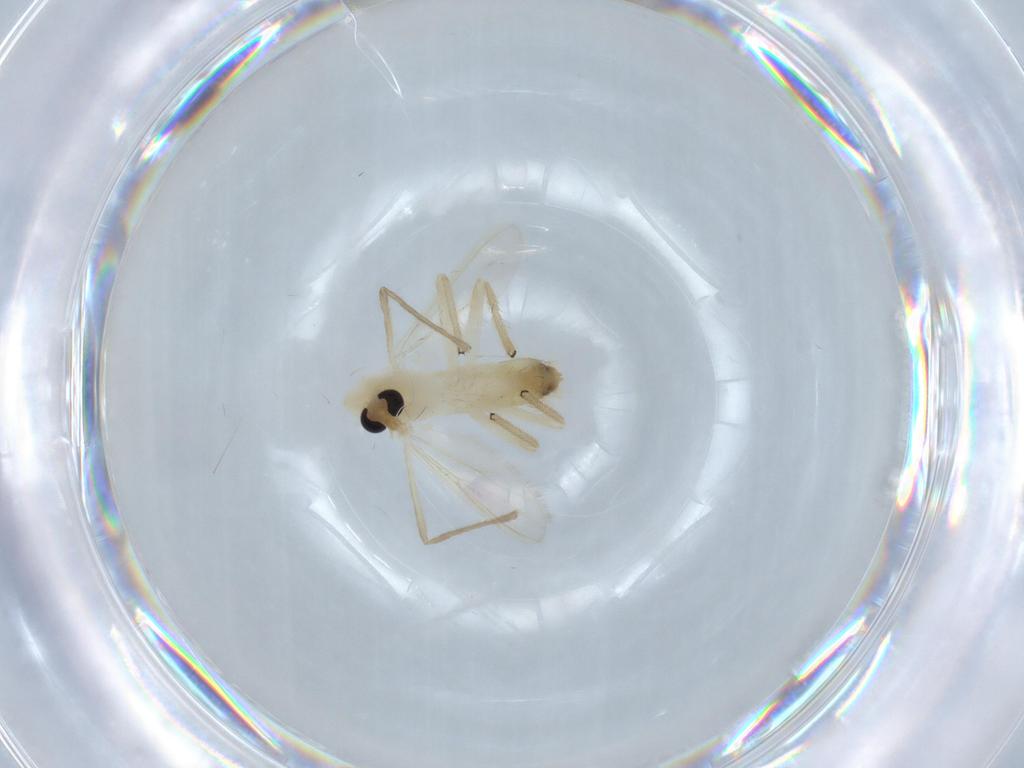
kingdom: Animalia
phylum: Arthropoda
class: Insecta
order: Diptera
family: Chironomidae
